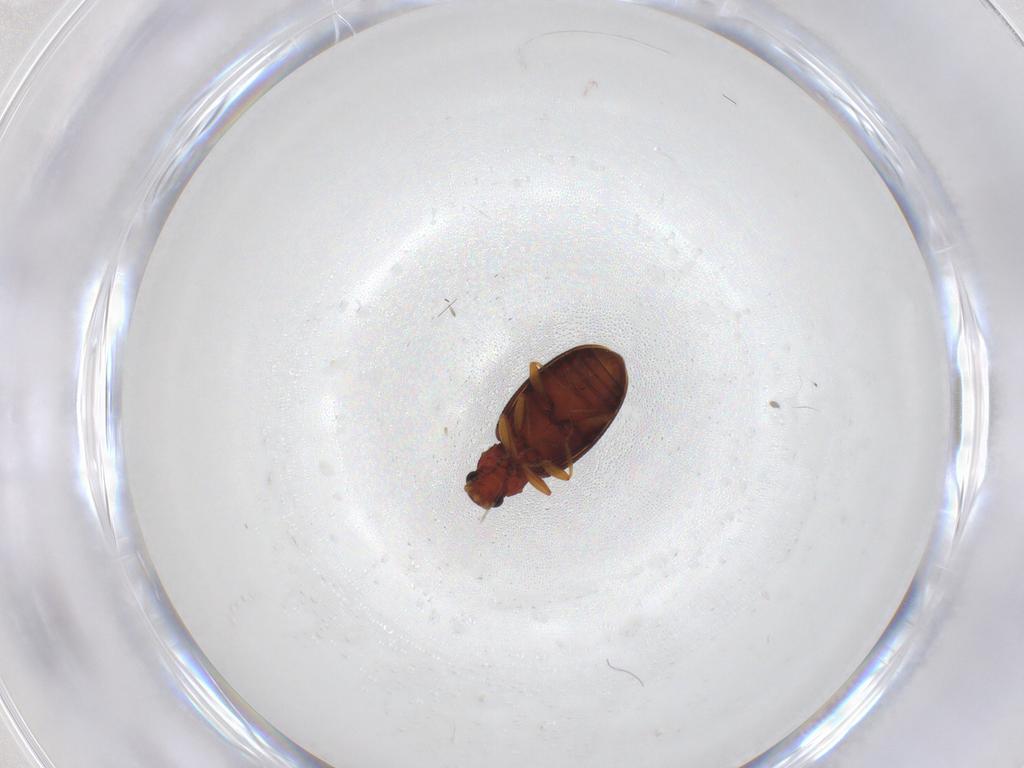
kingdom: Animalia
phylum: Arthropoda
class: Insecta
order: Coleoptera
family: Latridiidae
